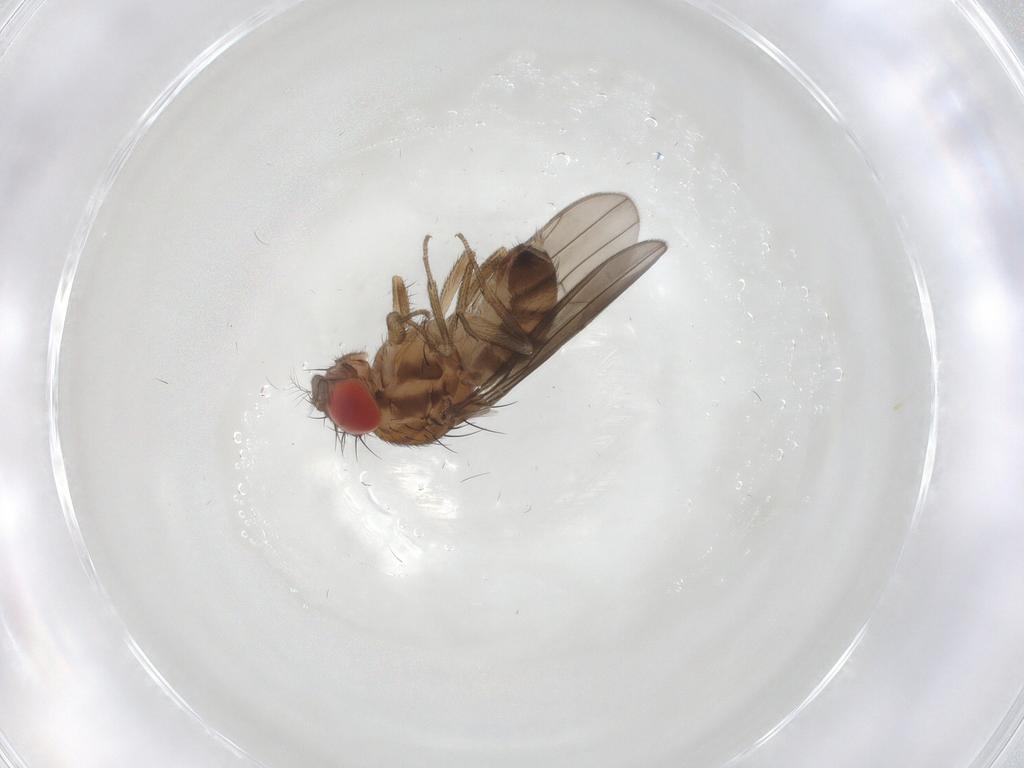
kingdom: Animalia
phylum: Arthropoda
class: Insecta
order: Diptera
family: Drosophilidae
